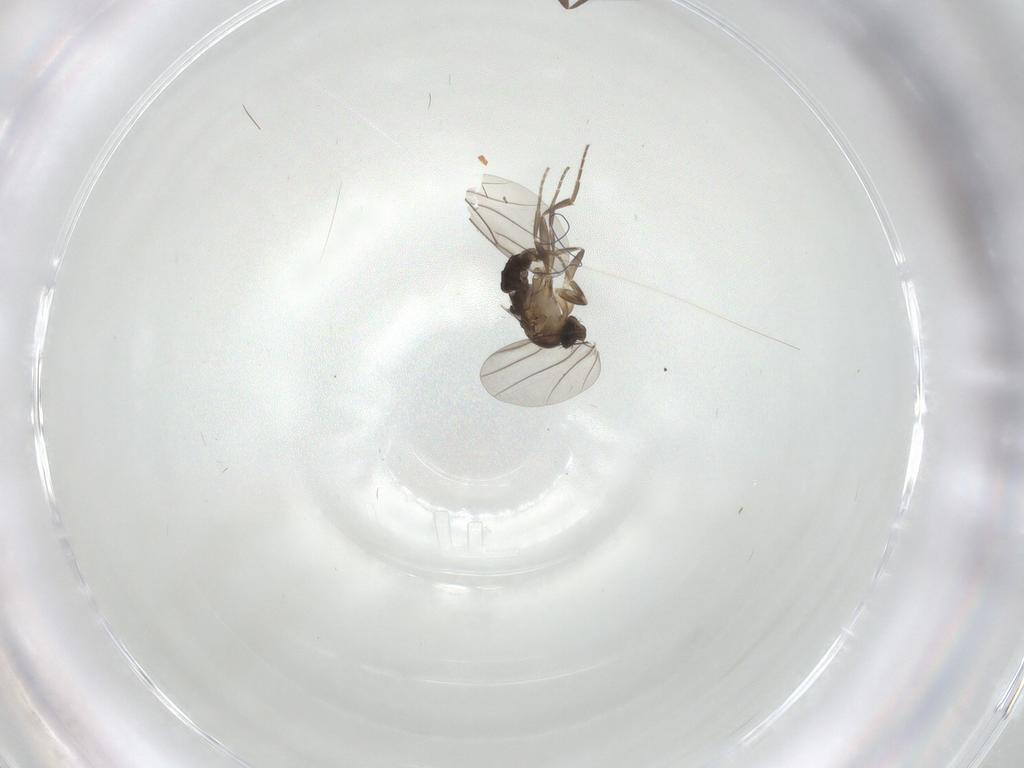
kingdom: Animalia
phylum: Arthropoda
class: Insecta
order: Diptera
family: Phoridae
